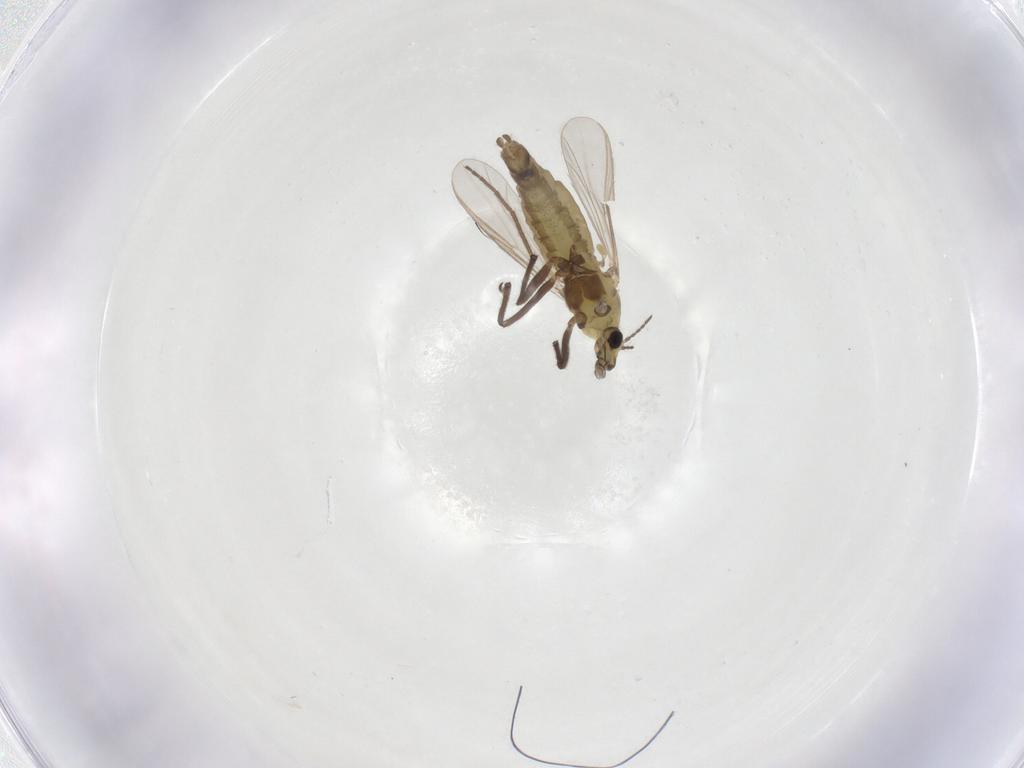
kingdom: Animalia
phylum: Arthropoda
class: Insecta
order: Diptera
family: Chironomidae
